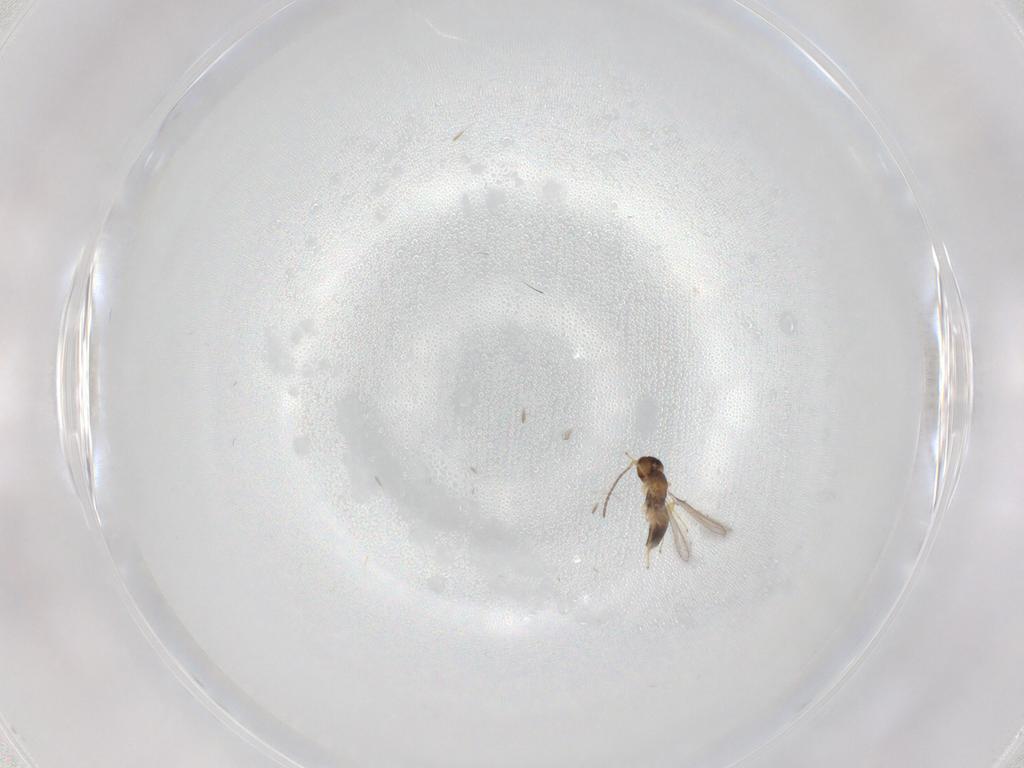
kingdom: Animalia
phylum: Arthropoda
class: Insecta
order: Hymenoptera
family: Mymaridae
